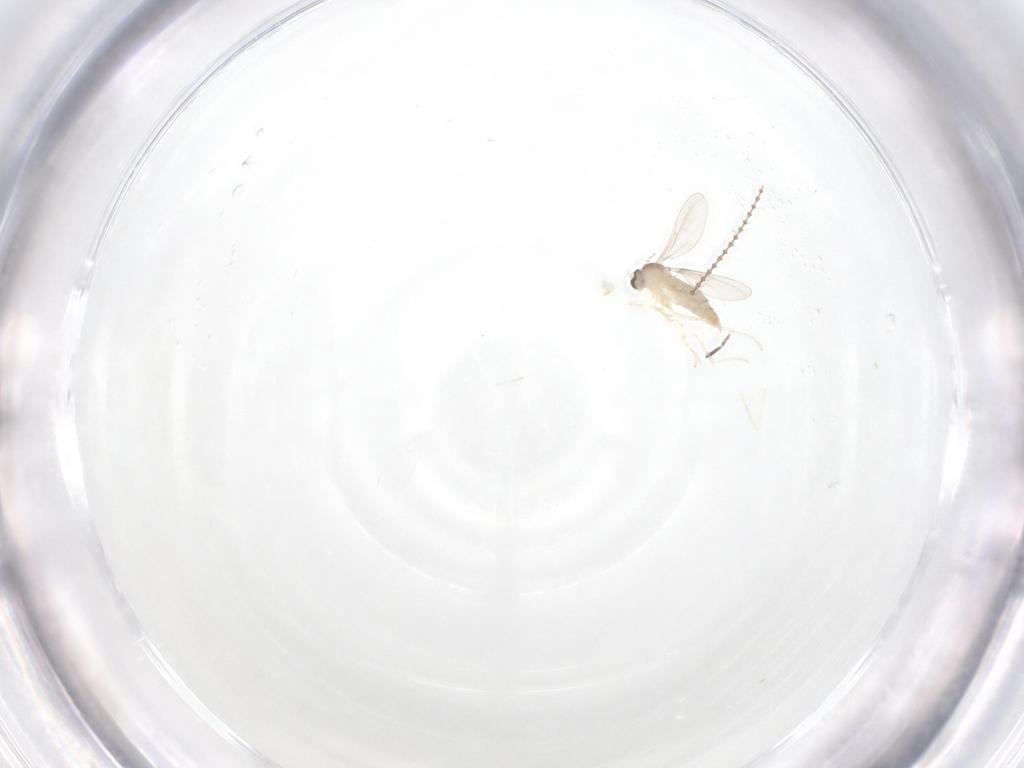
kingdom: Animalia
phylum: Arthropoda
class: Insecta
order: Diptera
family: Cecidomyiidae
